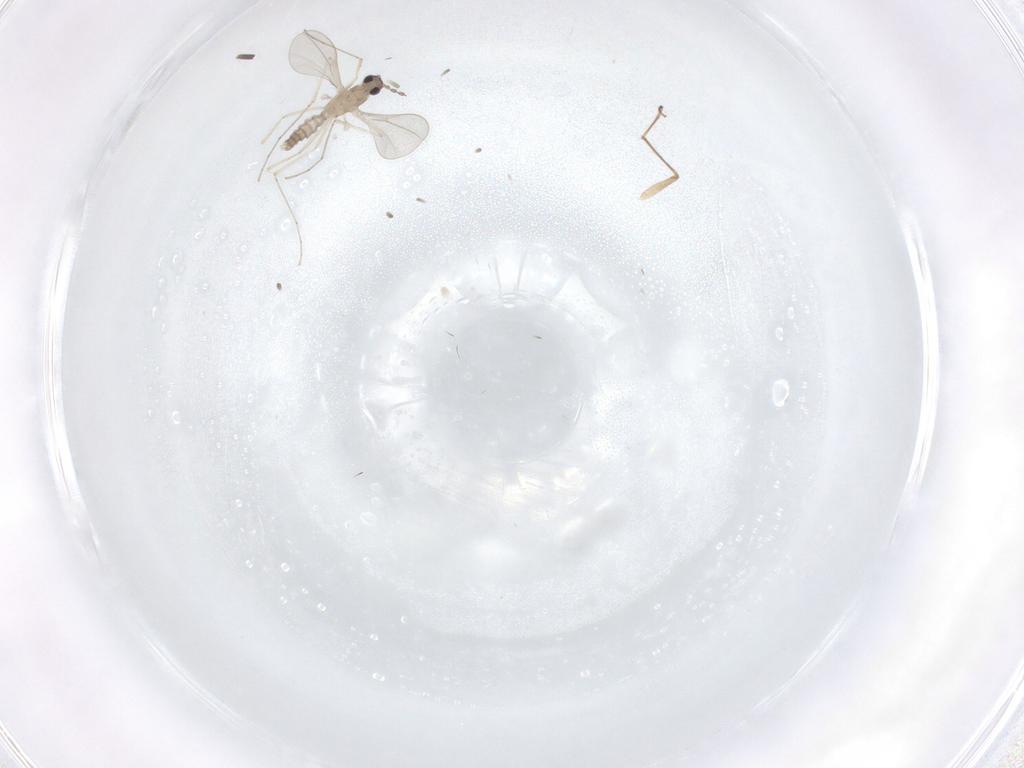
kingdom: Animalia
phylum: Arthropoda
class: Insecta
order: Diptera
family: Cecidomyiidae
